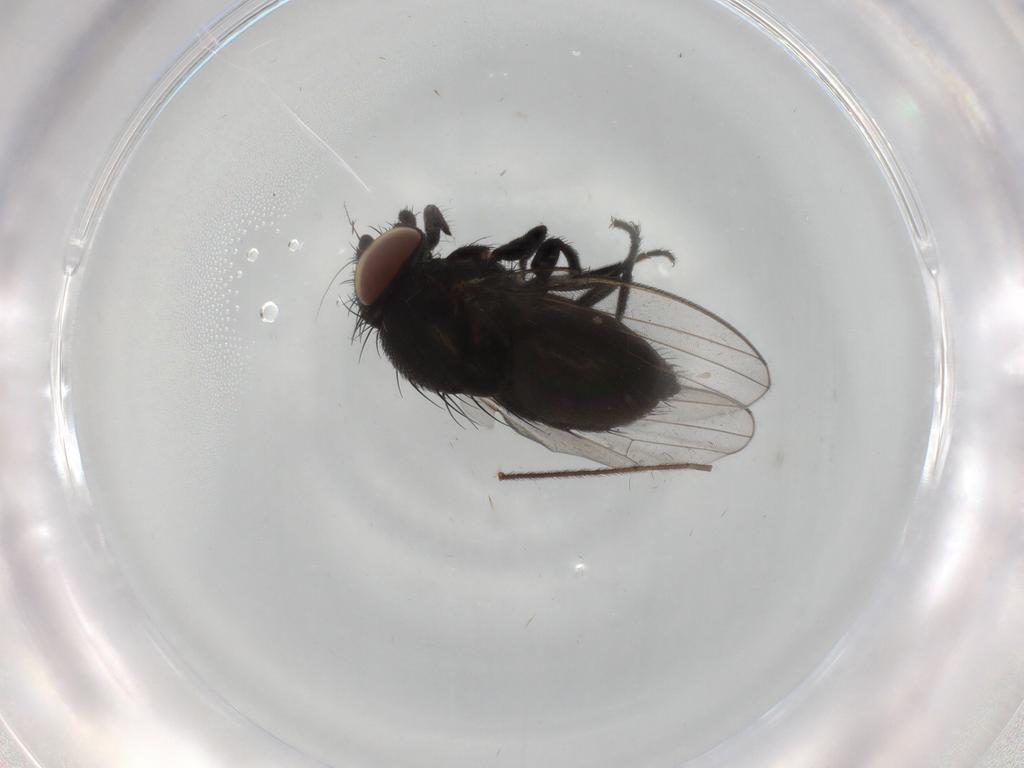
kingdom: Animalia
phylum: Arthropoda
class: Insecta
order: Diptera
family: Milichiidae
